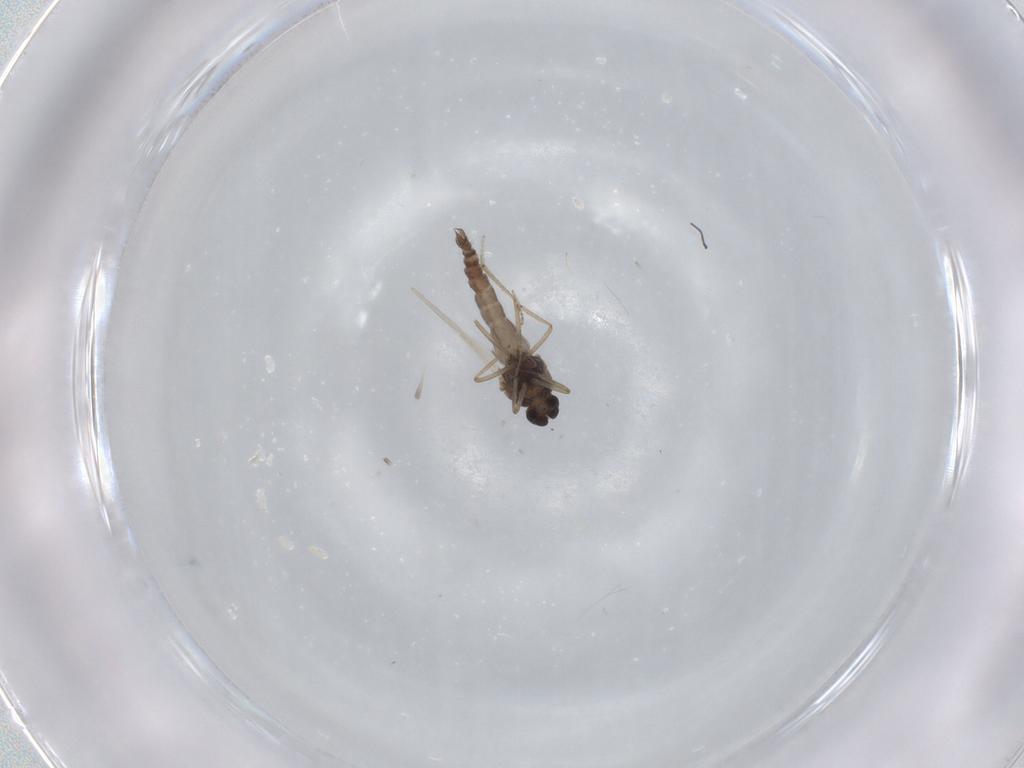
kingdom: Animalia
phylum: Arthropoda
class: Insecta
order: Diptera
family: Ceratopogonidae
